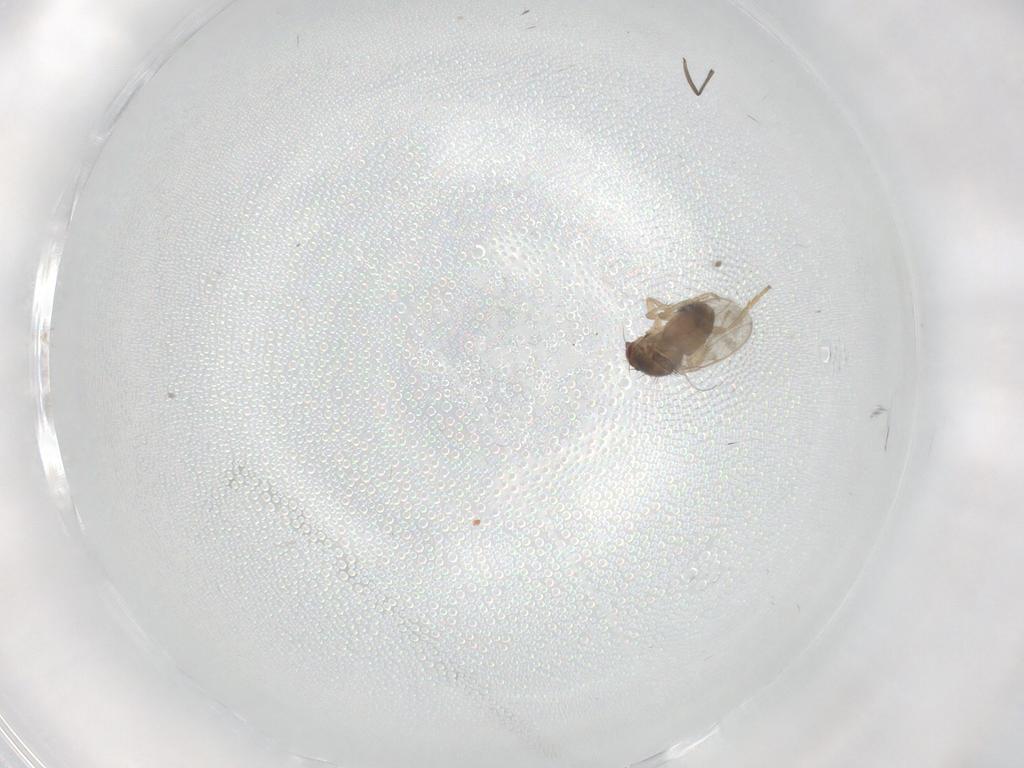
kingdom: Animalia
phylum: Arthropoda
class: Insecta
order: Diptera
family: Sphaeroceridae
